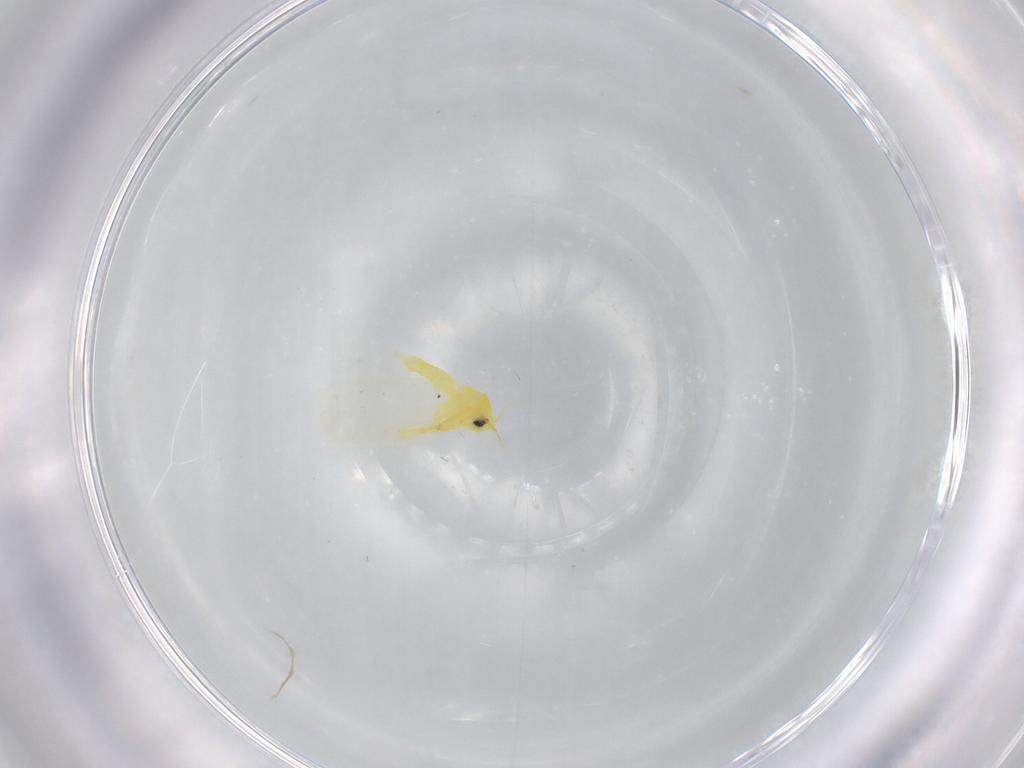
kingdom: Animalia
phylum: Arthropoda
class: Insecta
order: Hemiptera
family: Aleyrodidae
